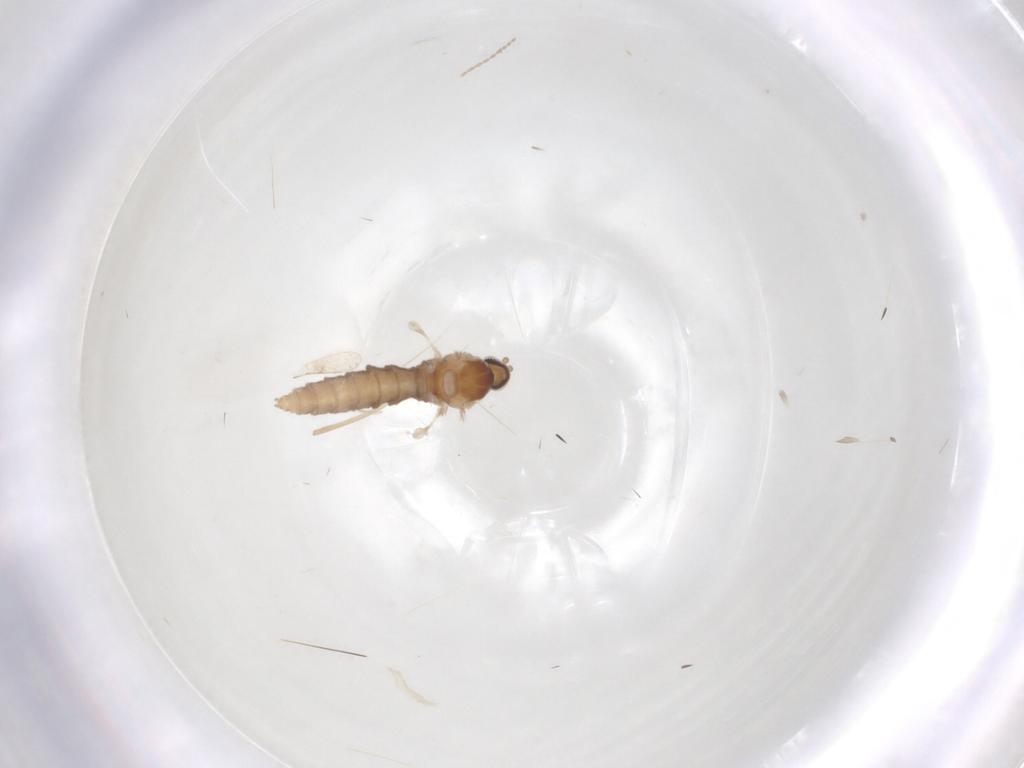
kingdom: Animalia
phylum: Arthropoda
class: Insecta
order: Diptera
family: Cecidomyiidae
